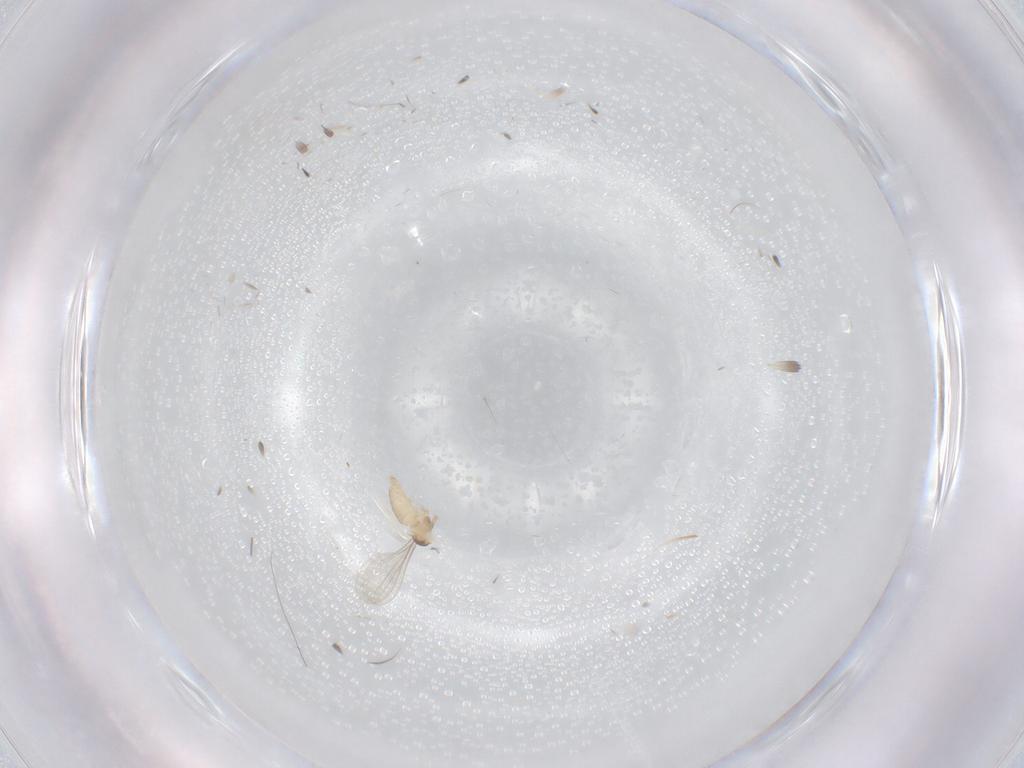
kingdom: Animalia
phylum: Arthropoda
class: Insecta
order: Diptera
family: Cecidomyiidae
